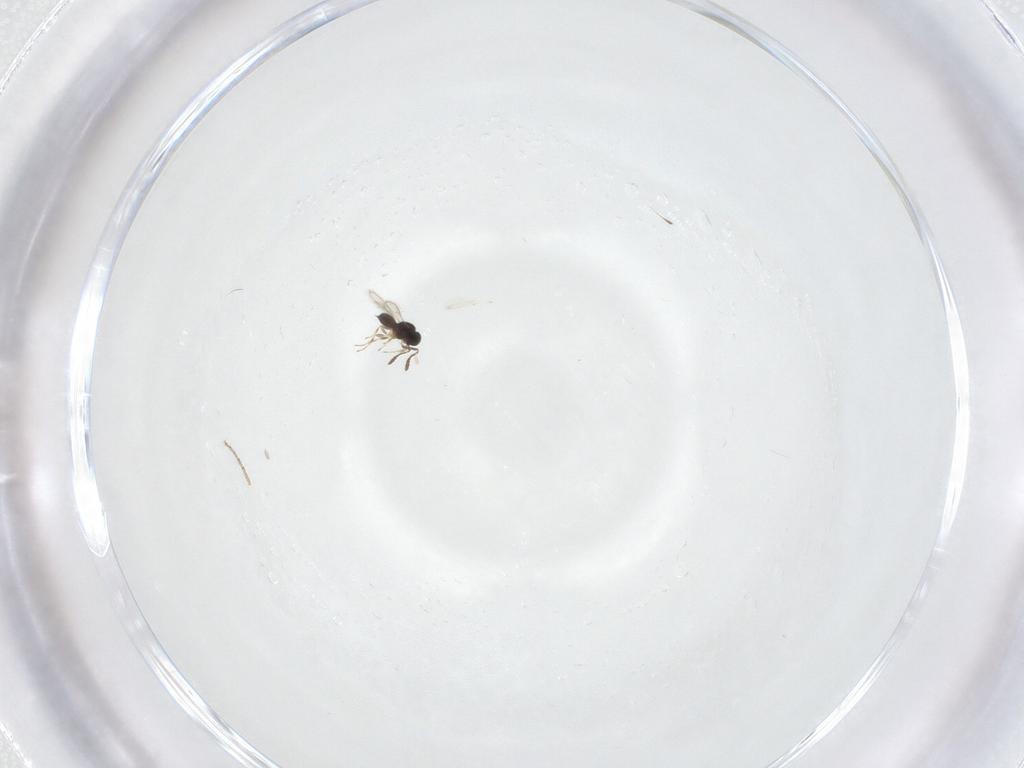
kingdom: Animalia
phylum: Arthropoda
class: Insecta
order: Hymenoptera
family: Scelionidae
